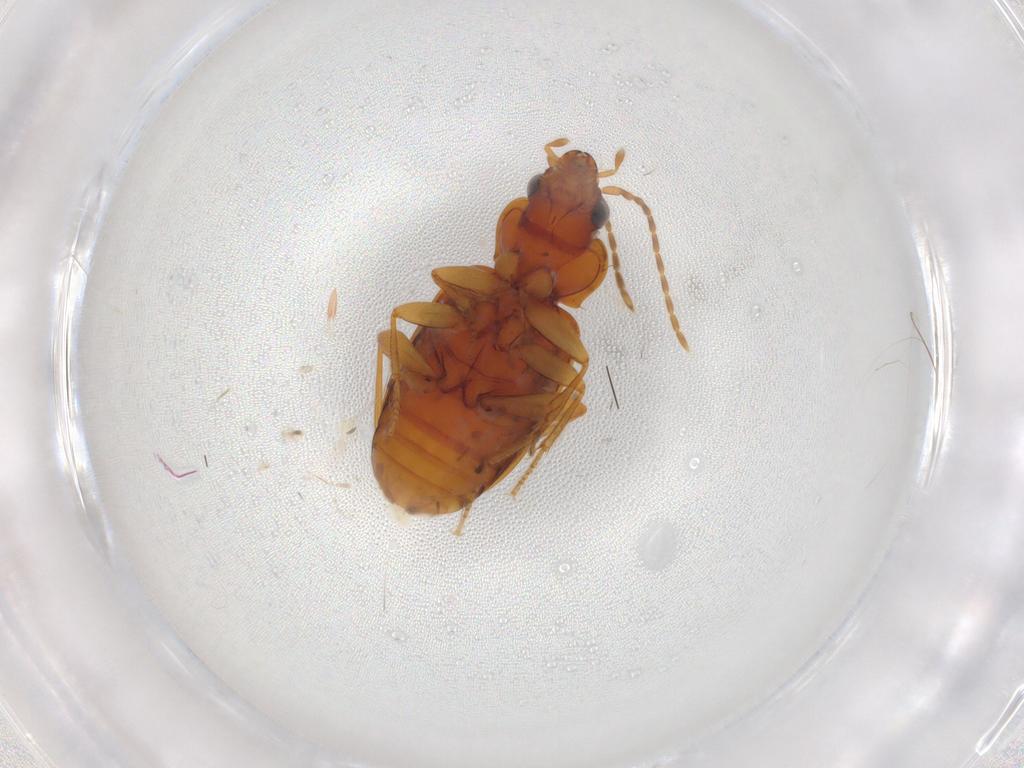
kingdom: Animalia
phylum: Arthropoda
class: Insecta
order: Coleoptera
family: Carabidae
